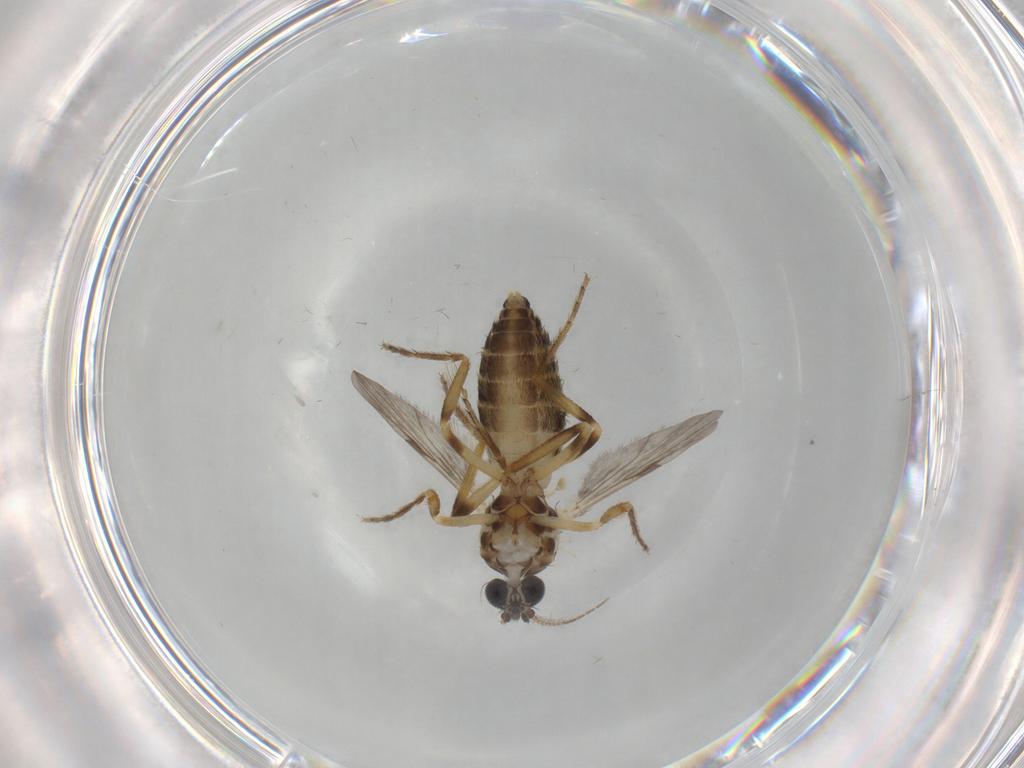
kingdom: Animalia
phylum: Arthropoda
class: Insecta
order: Diptera
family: Ceratopogonidae
